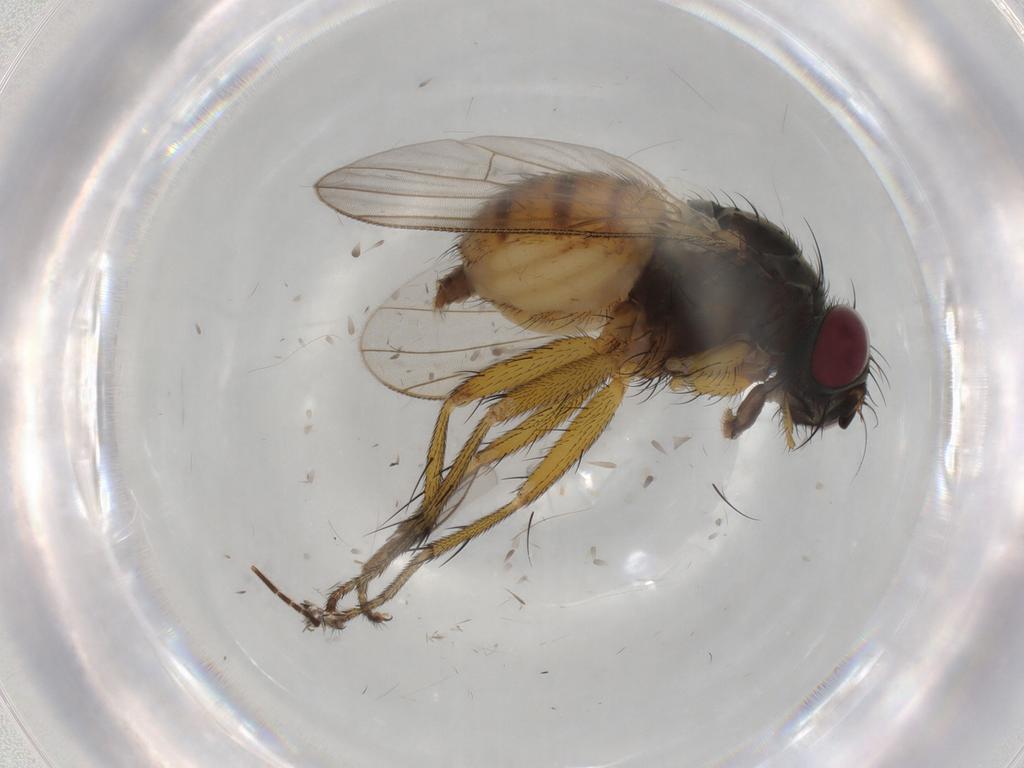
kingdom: Animalia
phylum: Arthropoda
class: Insecta
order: Diptera
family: Muscidae
